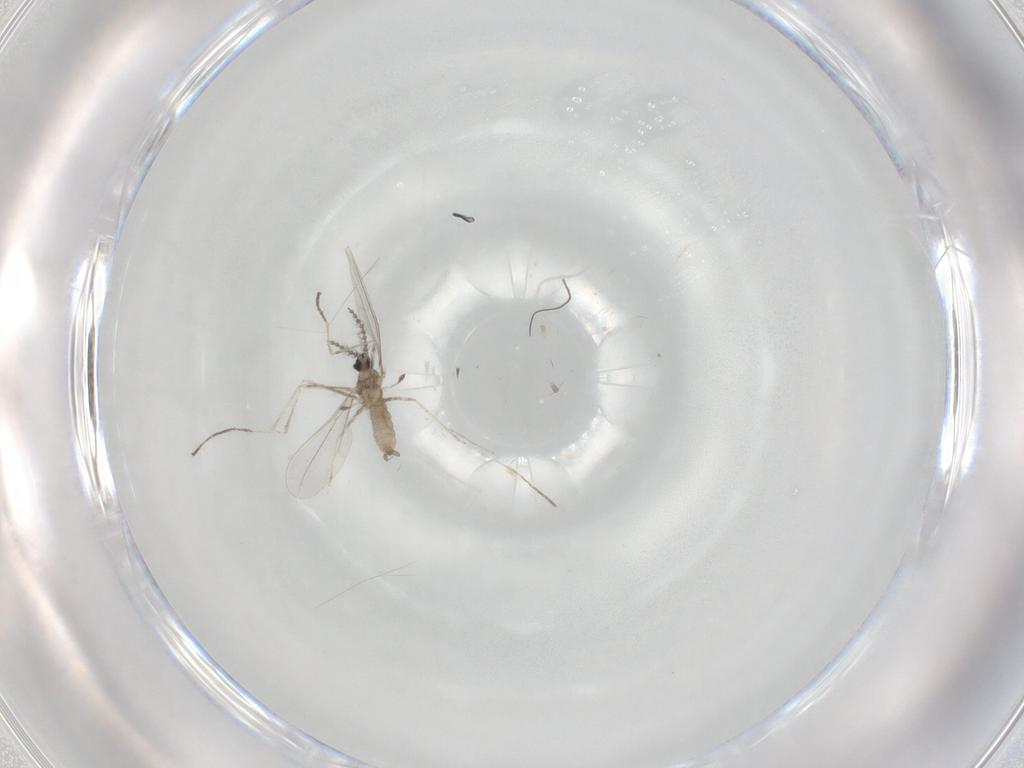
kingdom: Animalia
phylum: Arthropoda
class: Insecta
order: Diptera
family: Cecidomyiidae
